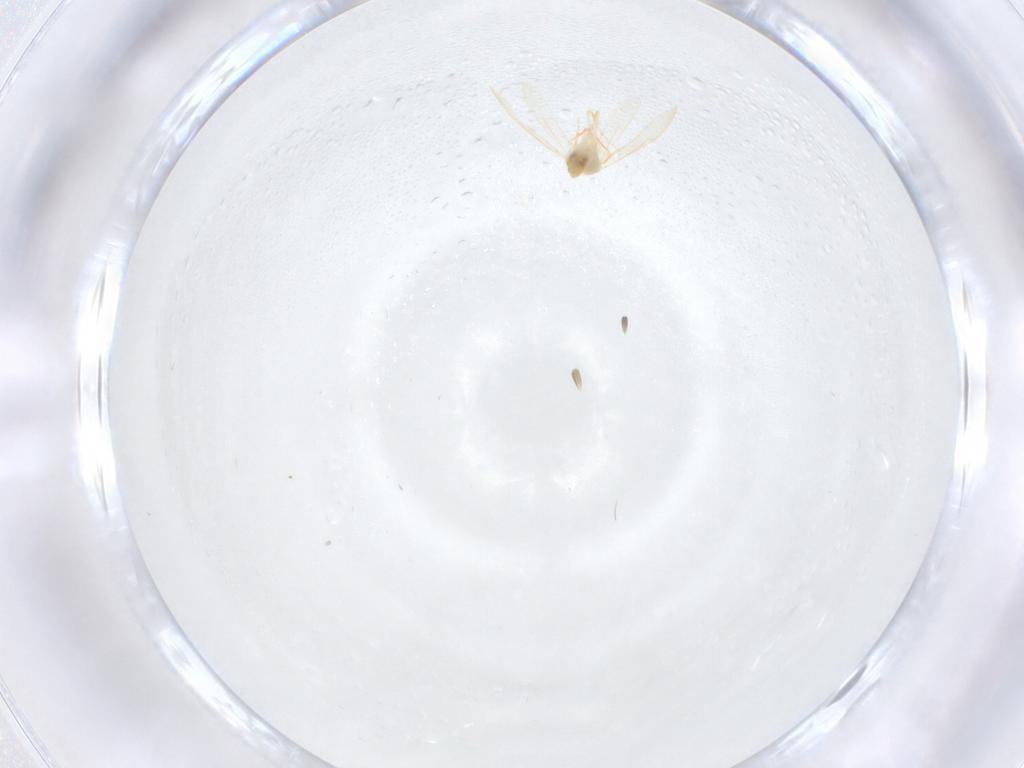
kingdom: Animalia
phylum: Arthropoda
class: Insecta
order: Hemiptera
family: Aleyrodidae
